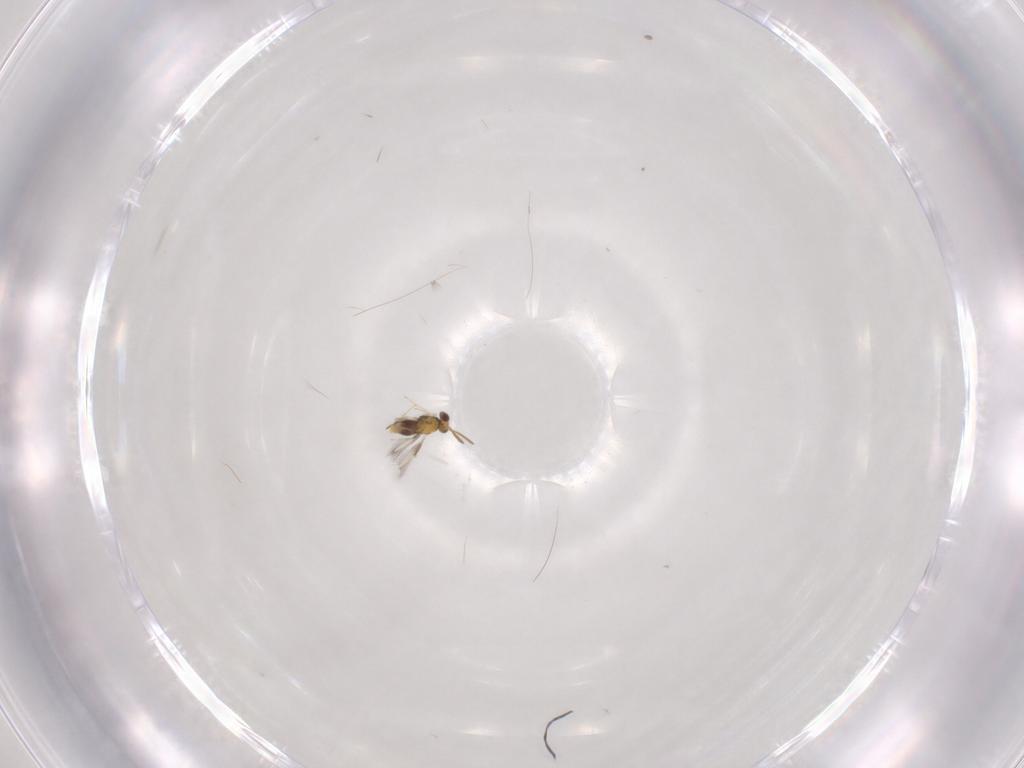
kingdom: Animalia
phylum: Arthropoda
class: Insecta
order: Hymenoptera
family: Aphelinidae
